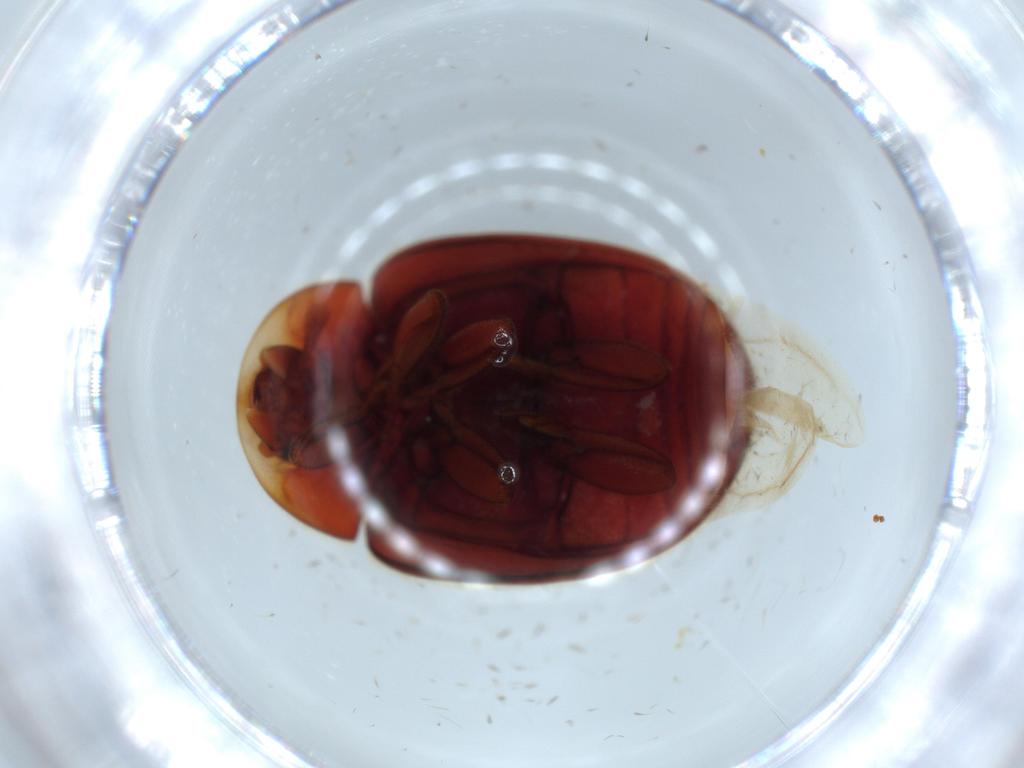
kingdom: Animalia
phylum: Arthropoda
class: Insecta
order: Coleoptera
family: Coccinellidae
